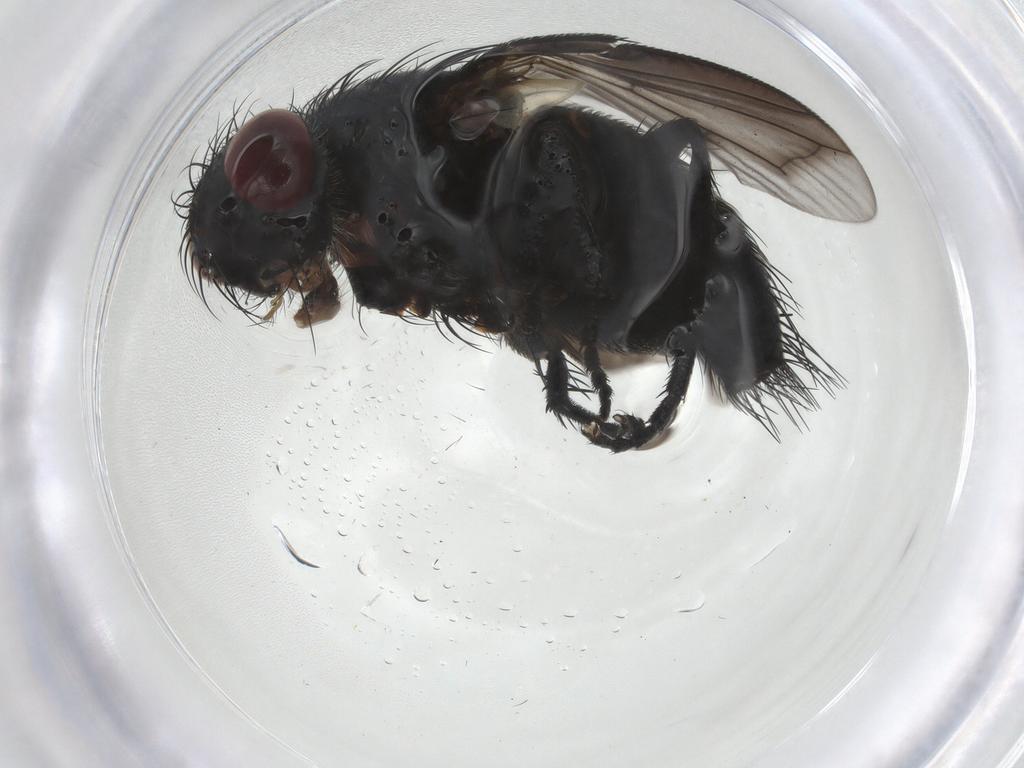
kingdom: Animalia
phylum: Arthropoda
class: Insecta
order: Diptera
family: Tachinidae
